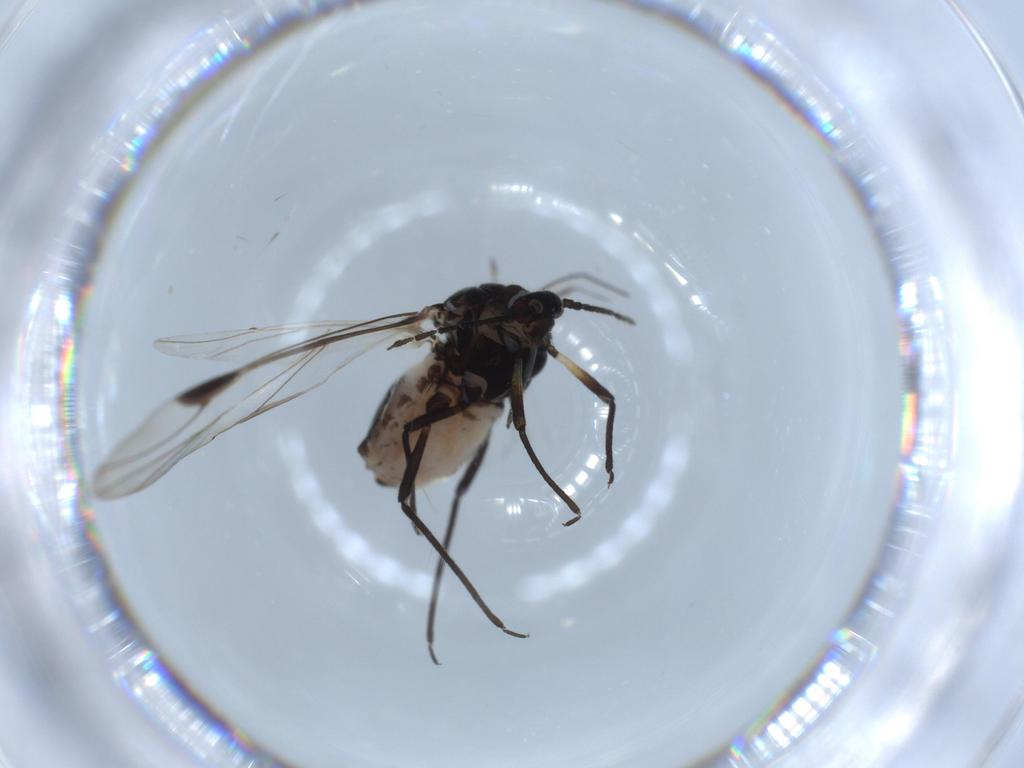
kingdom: Animalia
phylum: Arthropoda
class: Insecta
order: Hemiptera
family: Aleyrodidae
